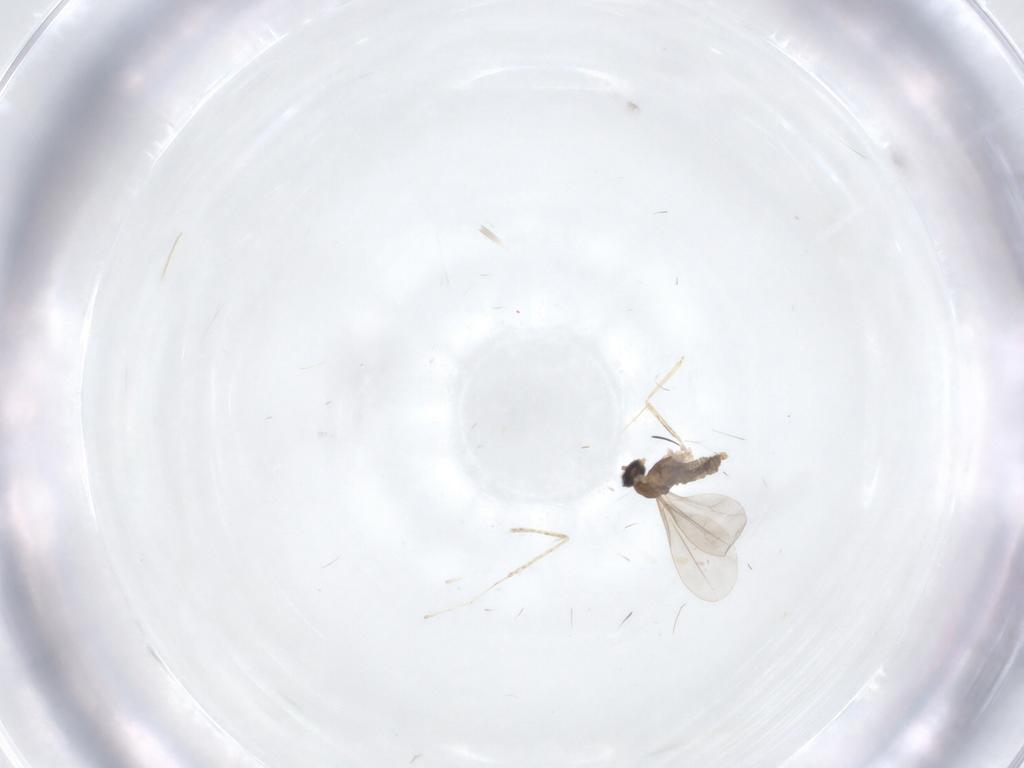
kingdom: Animalia
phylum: Arthropoda
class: Insecta
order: Diptera
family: Cecidomyiidae
